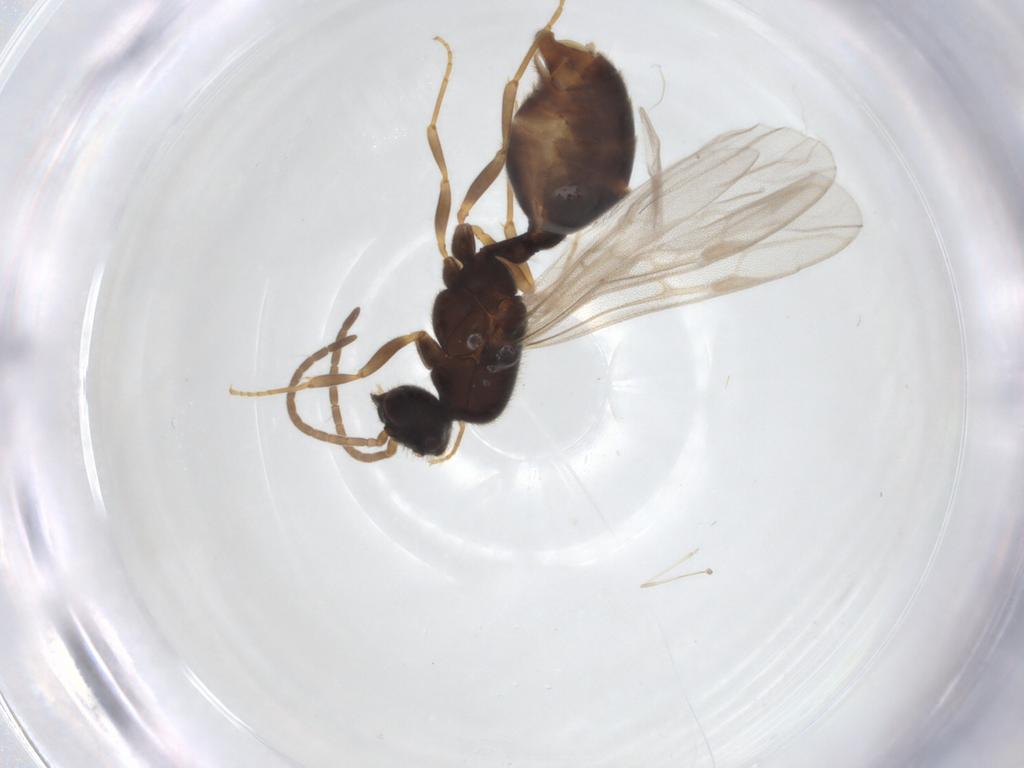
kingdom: Animalia
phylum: Arthropoda
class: Insecta
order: Hymenoptera
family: Formicidae
